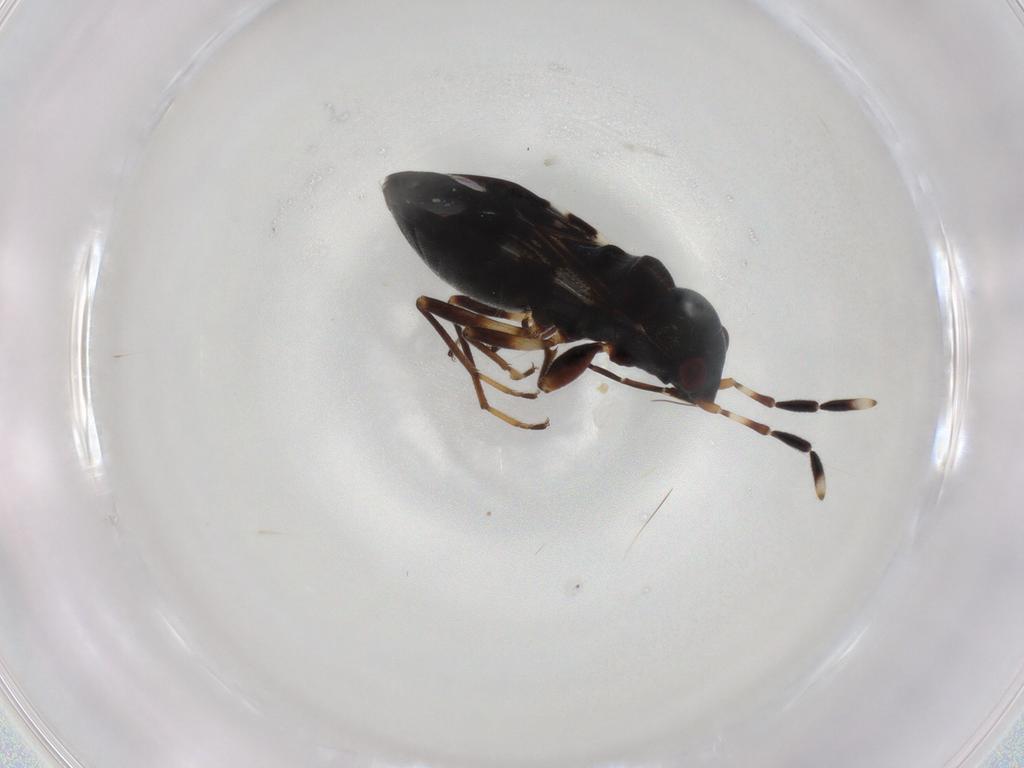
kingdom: Animalia
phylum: Arthropoda
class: Insecta
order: Hemiptera
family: Rhyparochromidae
